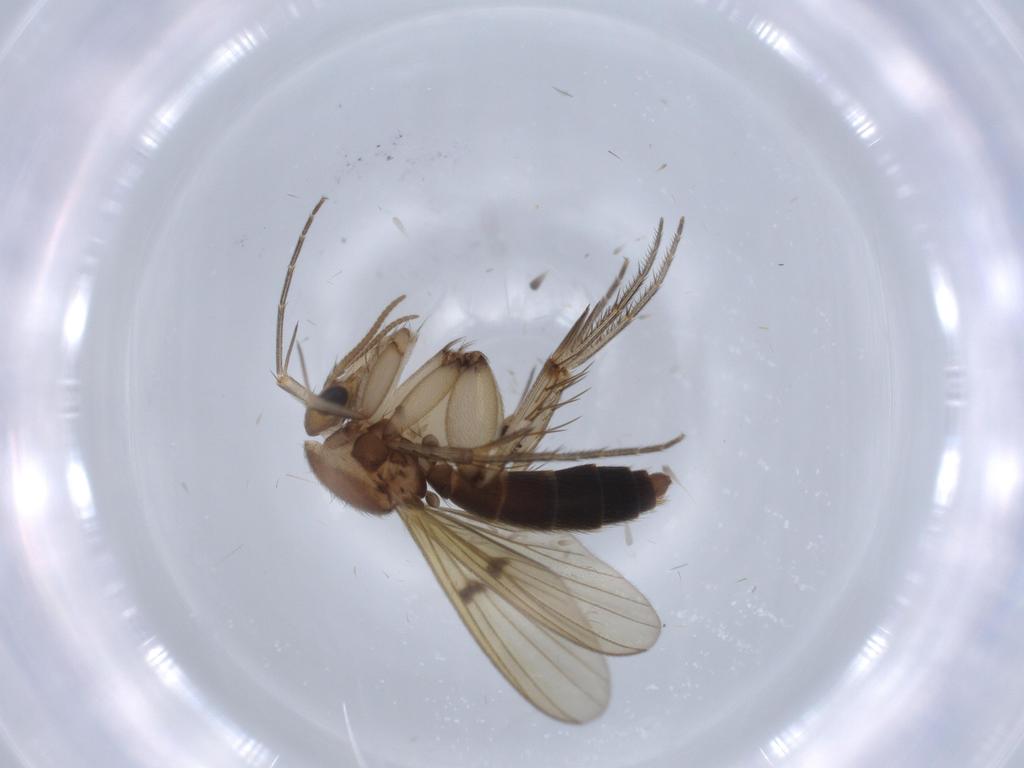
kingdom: Animalia
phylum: Arthropoda
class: Insecta
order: Diptera
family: Mycetophilidae
